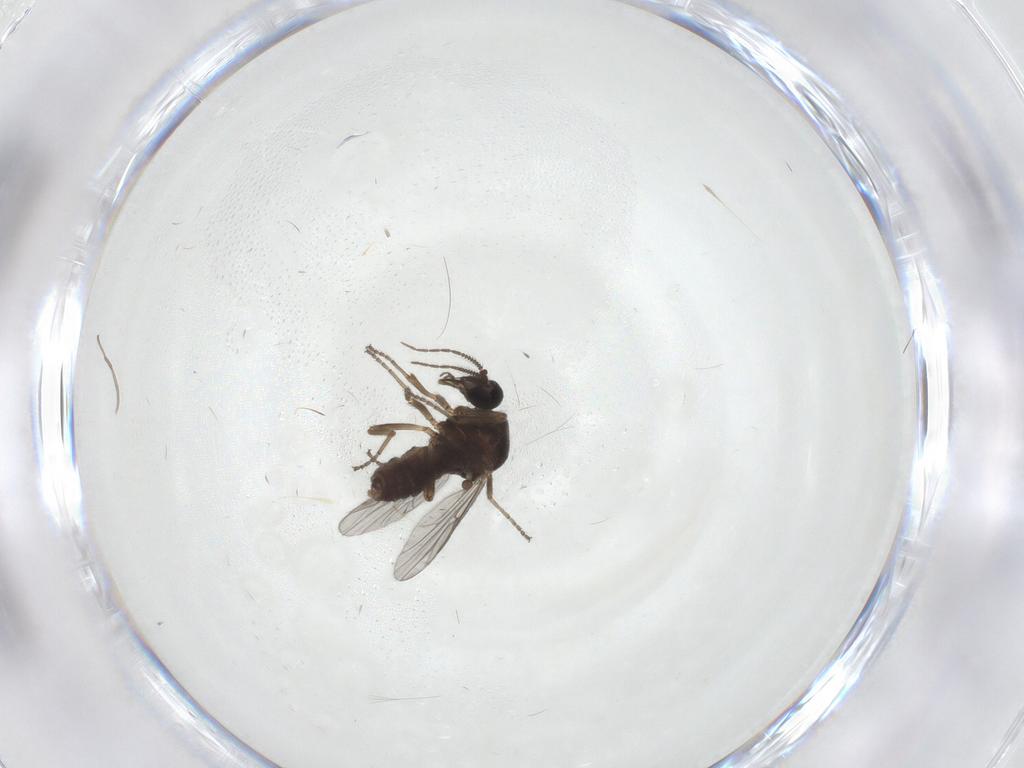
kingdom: Animalia
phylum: Arthropoda
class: Insecta
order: Diptera
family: Ceratopogonidae
